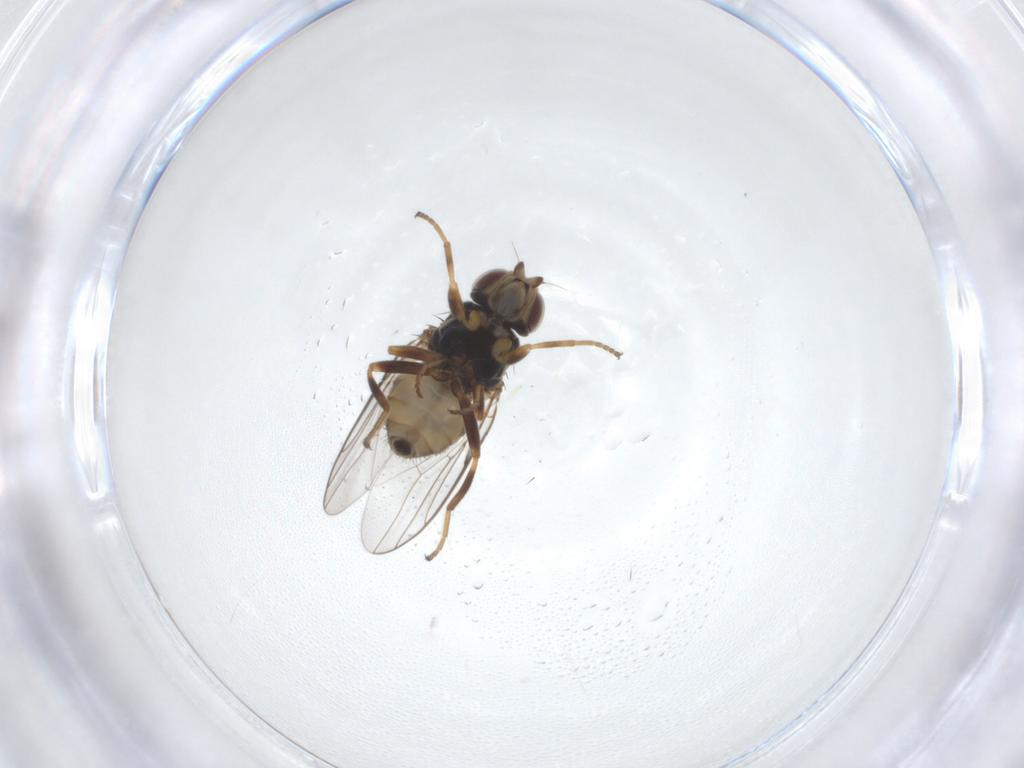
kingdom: Animalia
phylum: Arthropoda
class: Insecta
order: Diptera
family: Chloropidae
